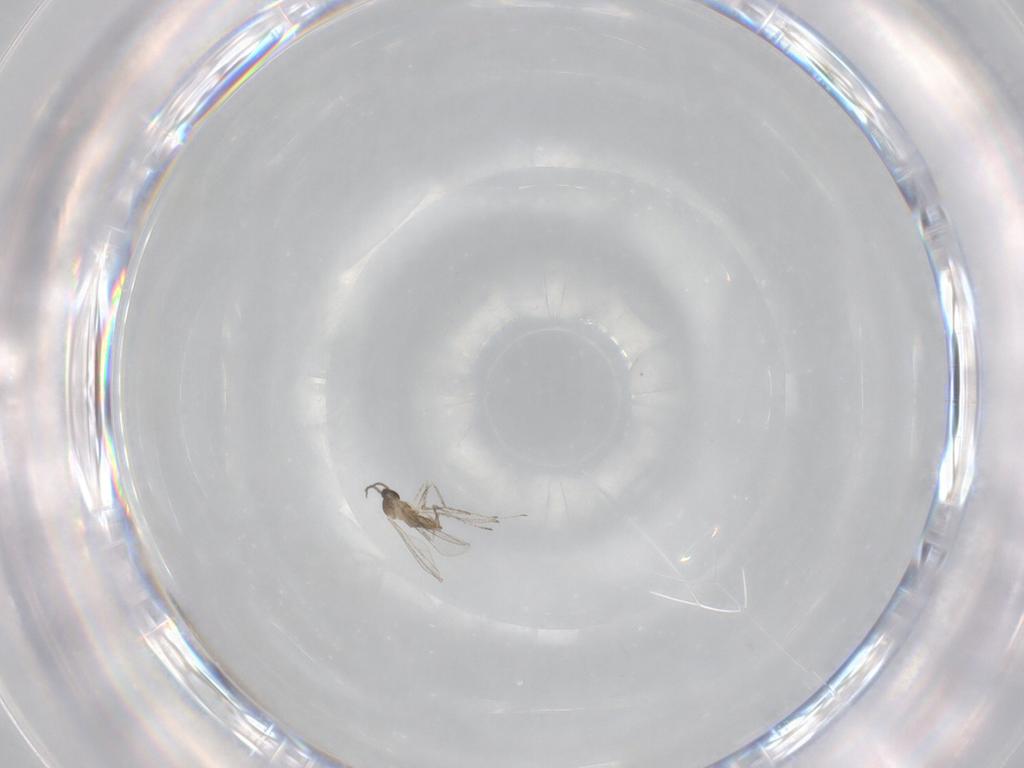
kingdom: Animalia
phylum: Arthropoda
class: Insecta
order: Diptera
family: Cecidomyiidae
